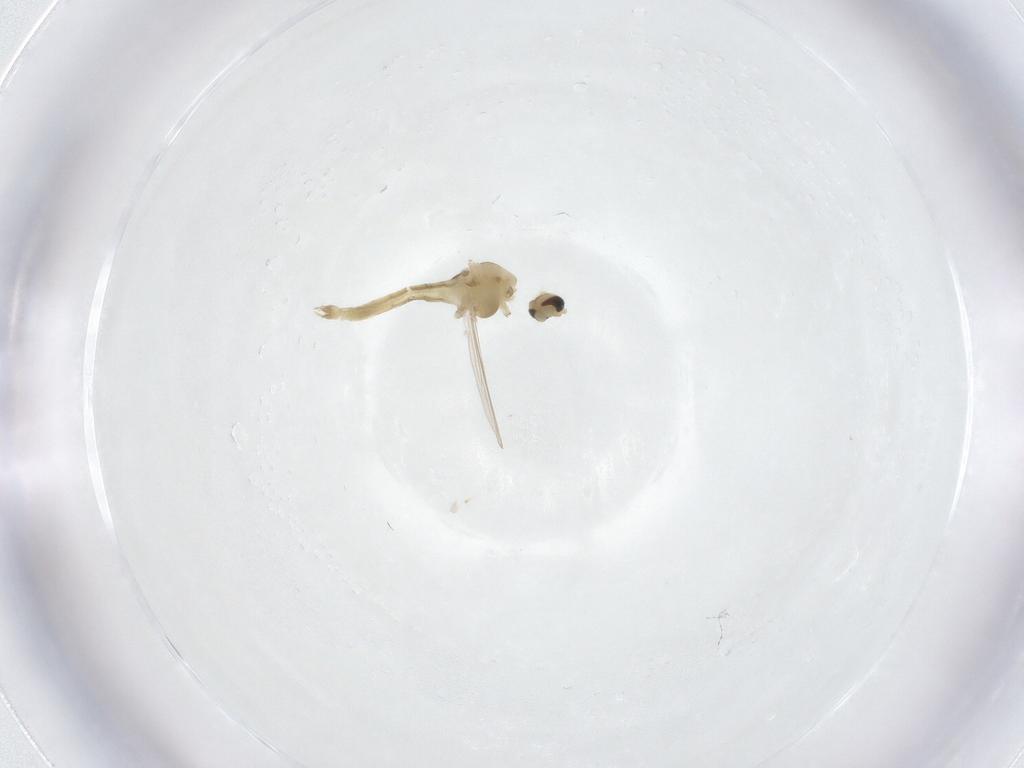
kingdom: Animalia
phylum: Arthropoda
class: Insecta
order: Diptera
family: Chironomidae
